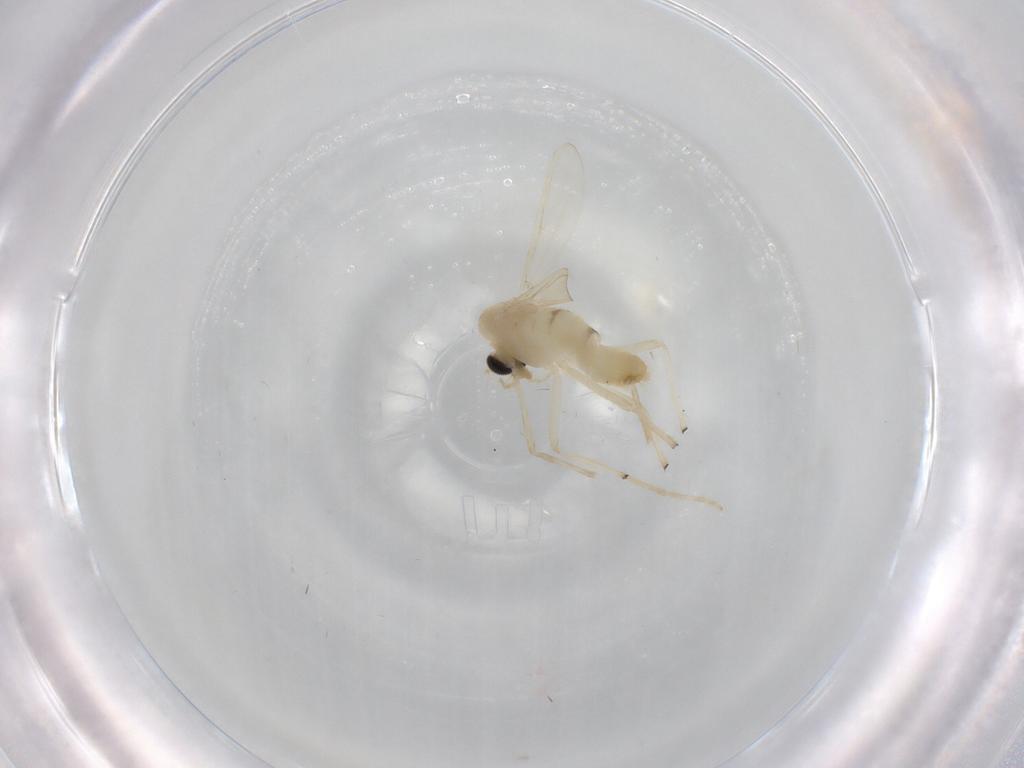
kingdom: Animalia
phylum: Arthropoda
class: Insecta
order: Diptera
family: Chironomidae
